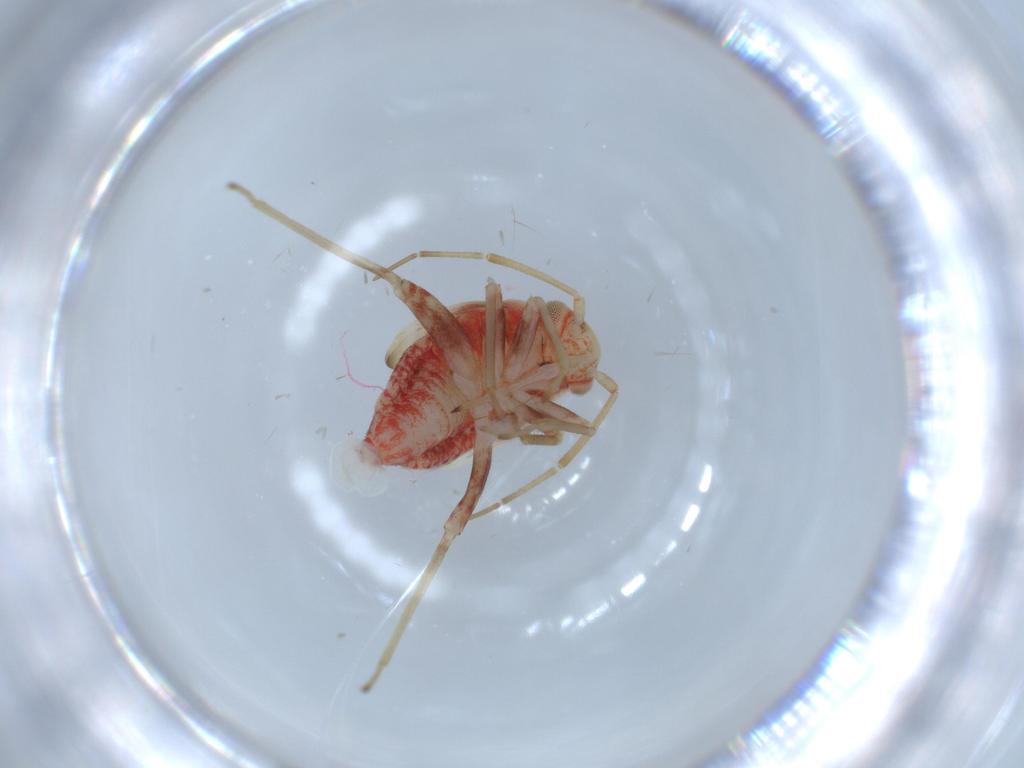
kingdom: Animalia
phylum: Arthropoda
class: Insecta
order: Hemiptera
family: Miridae
